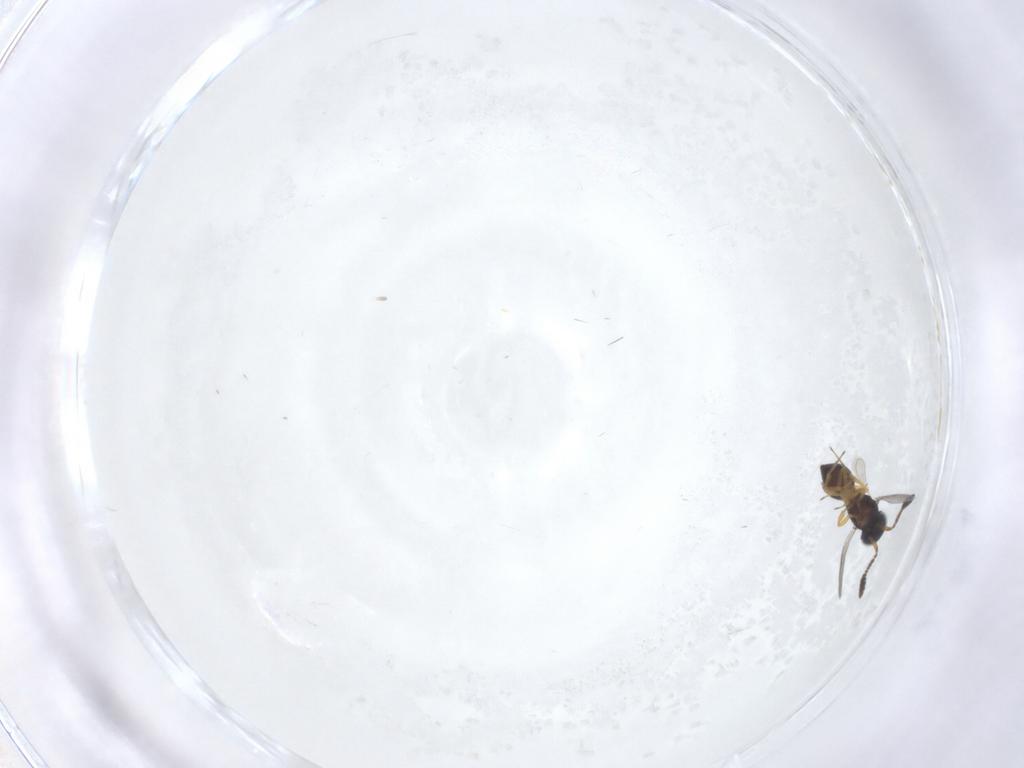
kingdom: Animalia
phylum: Arthropoda
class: Insecta
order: Hymenoptera
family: Scelionidae
